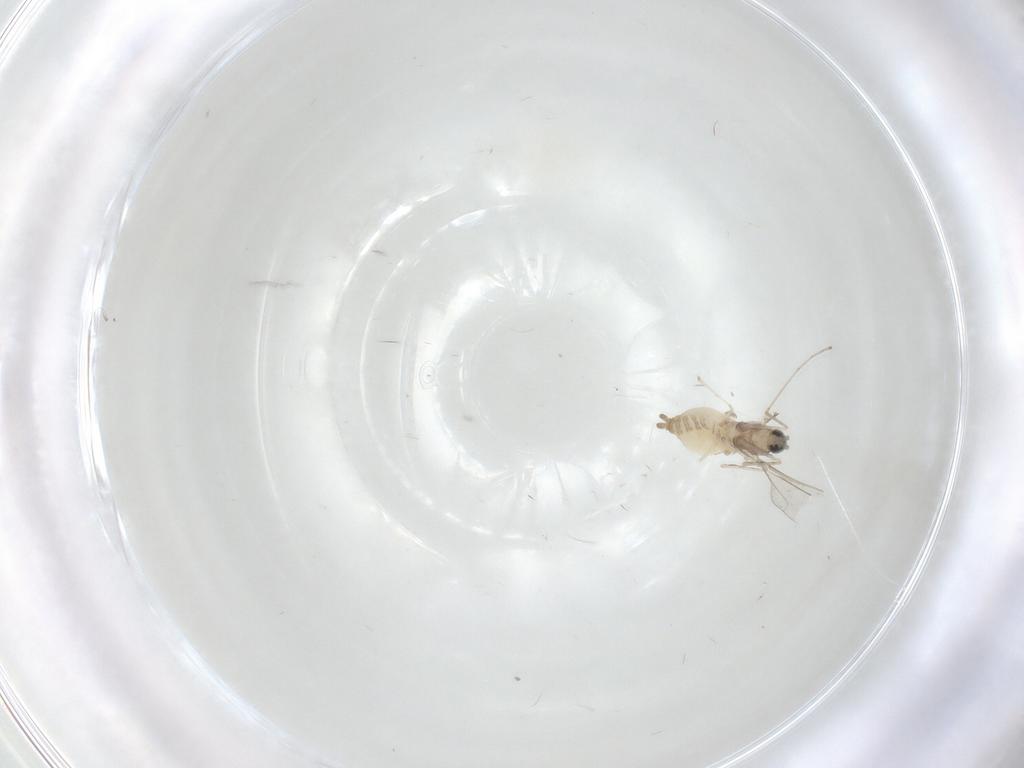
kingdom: Animalia
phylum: Arthropoda
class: Insecta
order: Diptera
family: Cecidomyiidae
